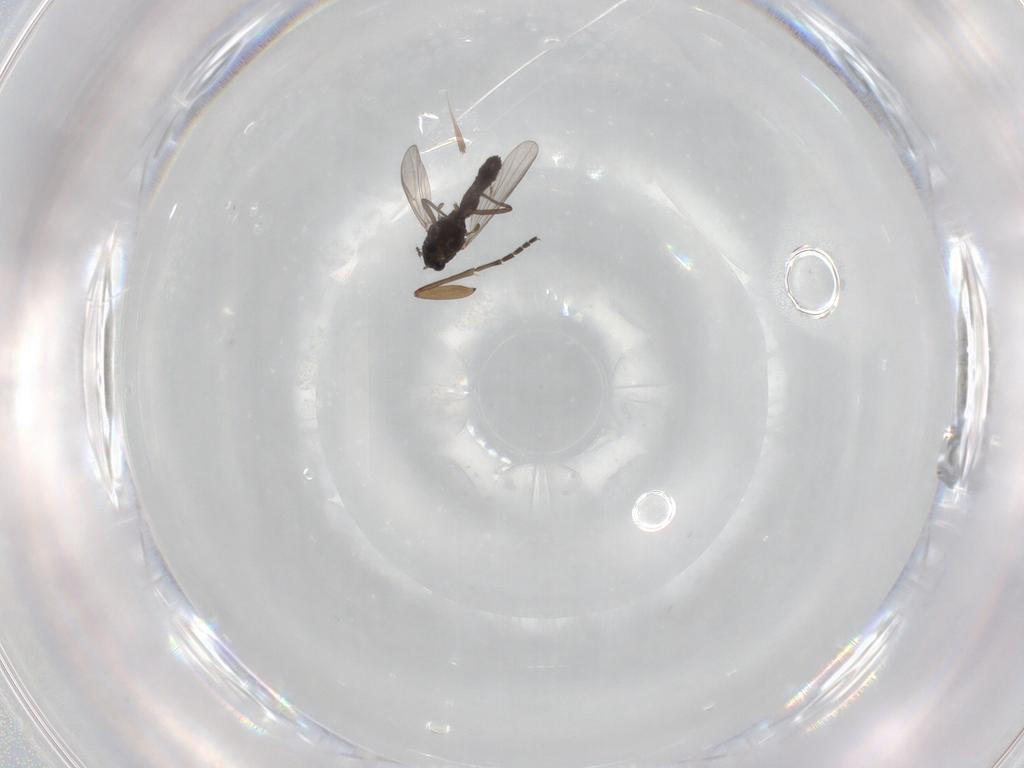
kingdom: Animalia
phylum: Arthropoda
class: Insecta
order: Diptera
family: Chironomidae
